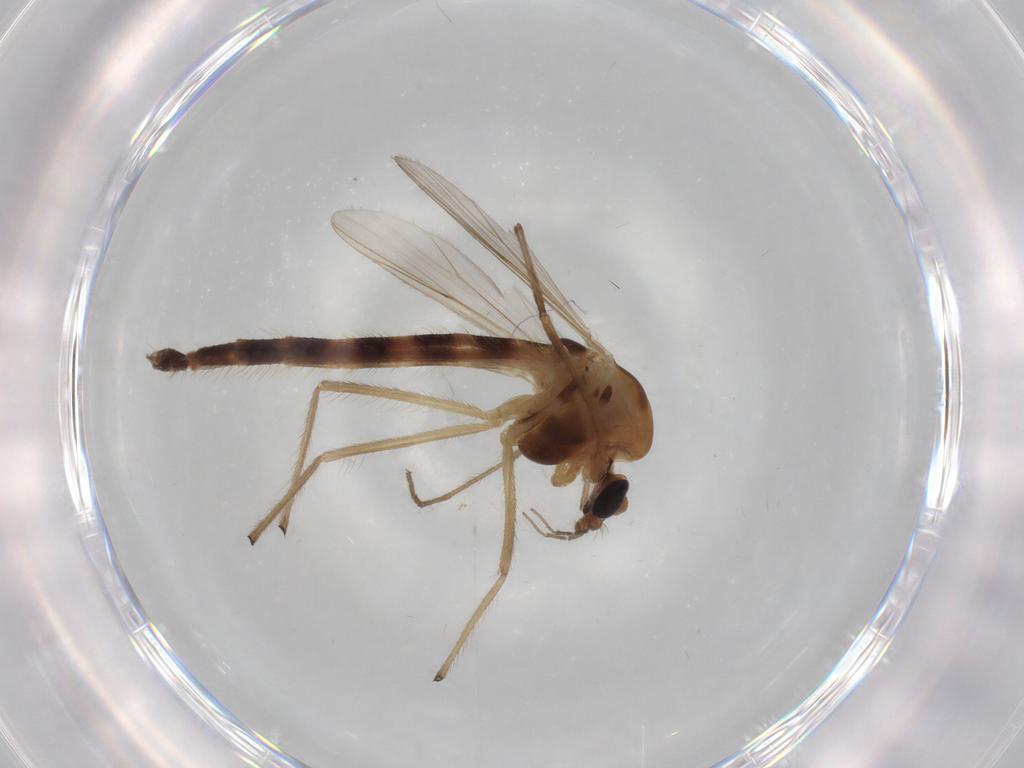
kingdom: Animalia
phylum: Arthropoda
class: Insecta
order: Diptera
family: Chironomidae
